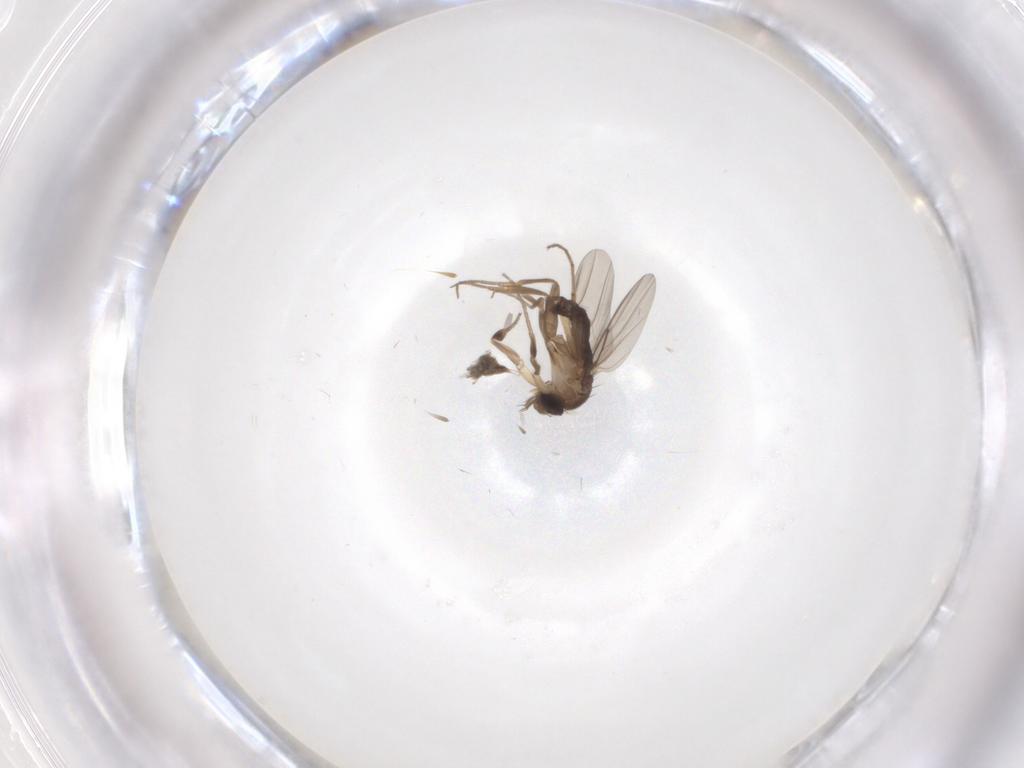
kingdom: Animalia
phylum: Arthropoda
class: Insecta
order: Diptera
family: Phoridae
